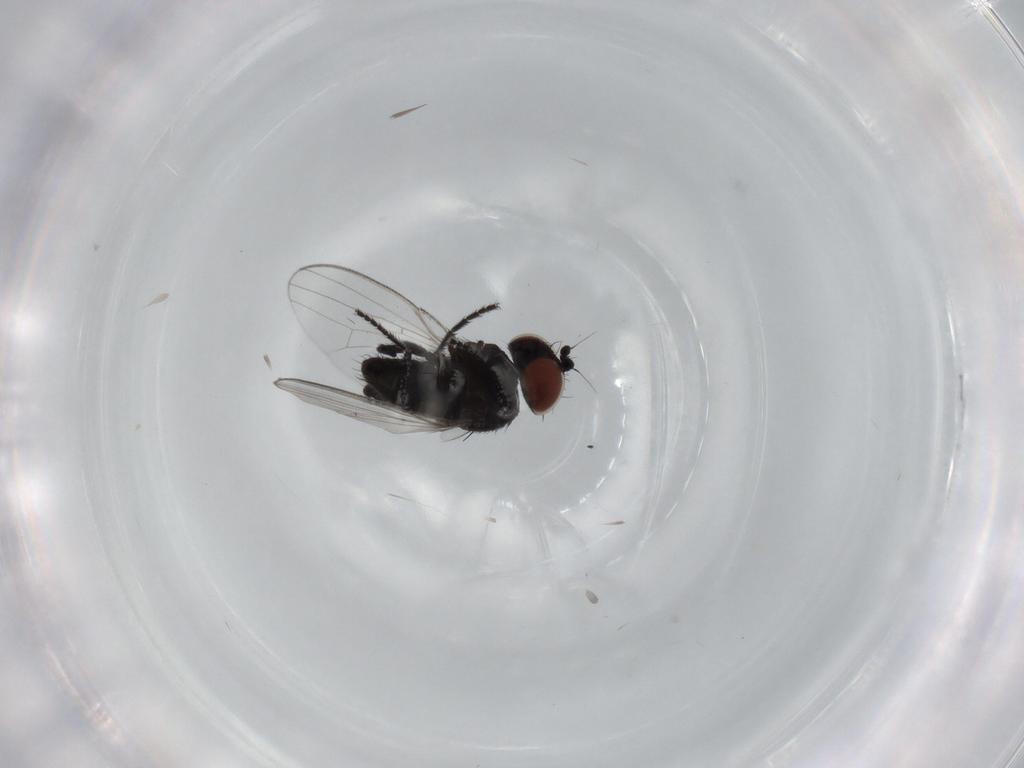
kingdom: Animalia
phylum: Arthropoda
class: Insecta
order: Diptera
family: Milichiidae
